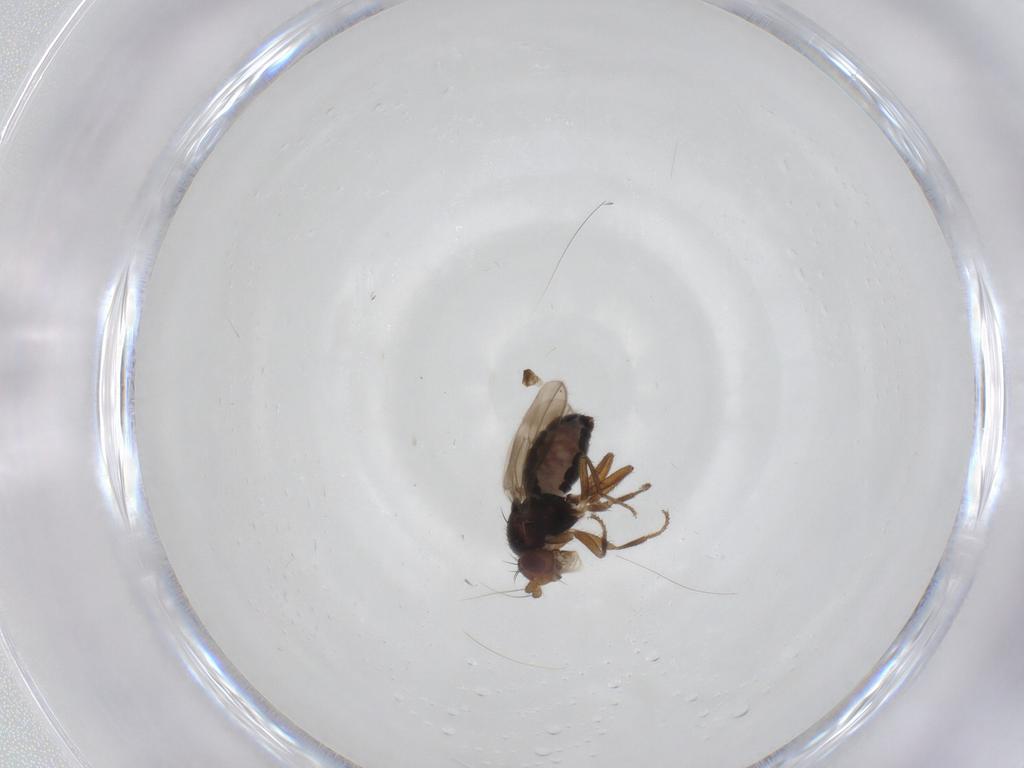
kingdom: Animalia
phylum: Arthropoda
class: Insecta
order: Diptera
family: Sphaeroceridae
